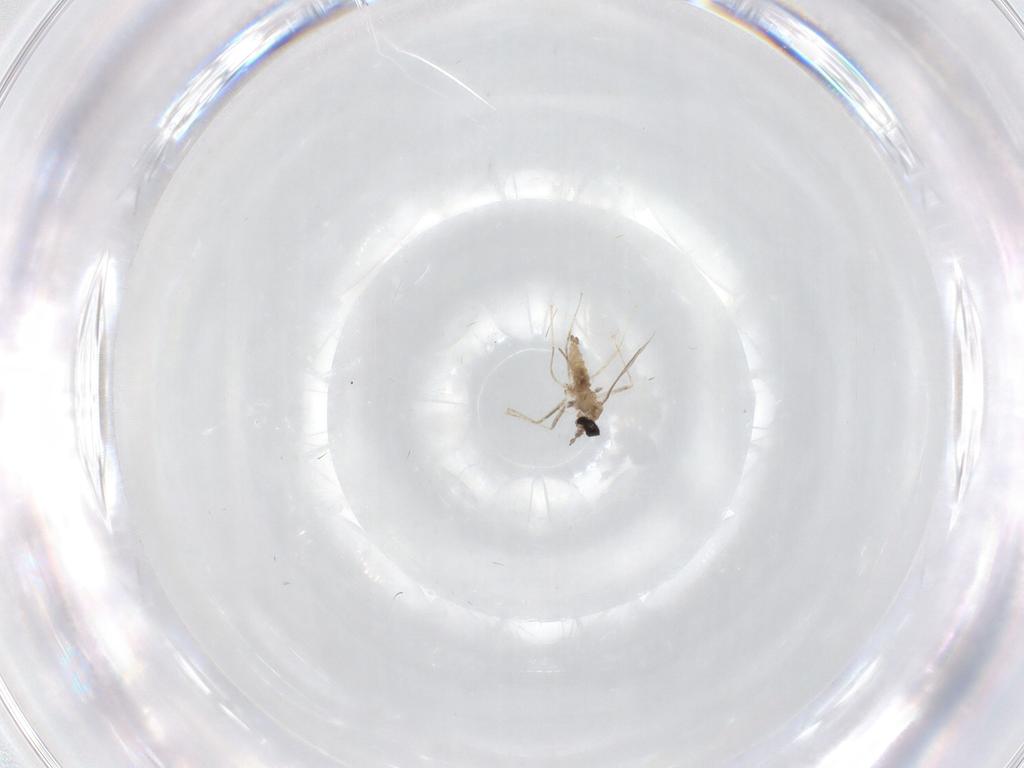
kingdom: Animalia
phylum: Arthropoda
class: Insecta
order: Diptera
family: Cecidomyiidae
